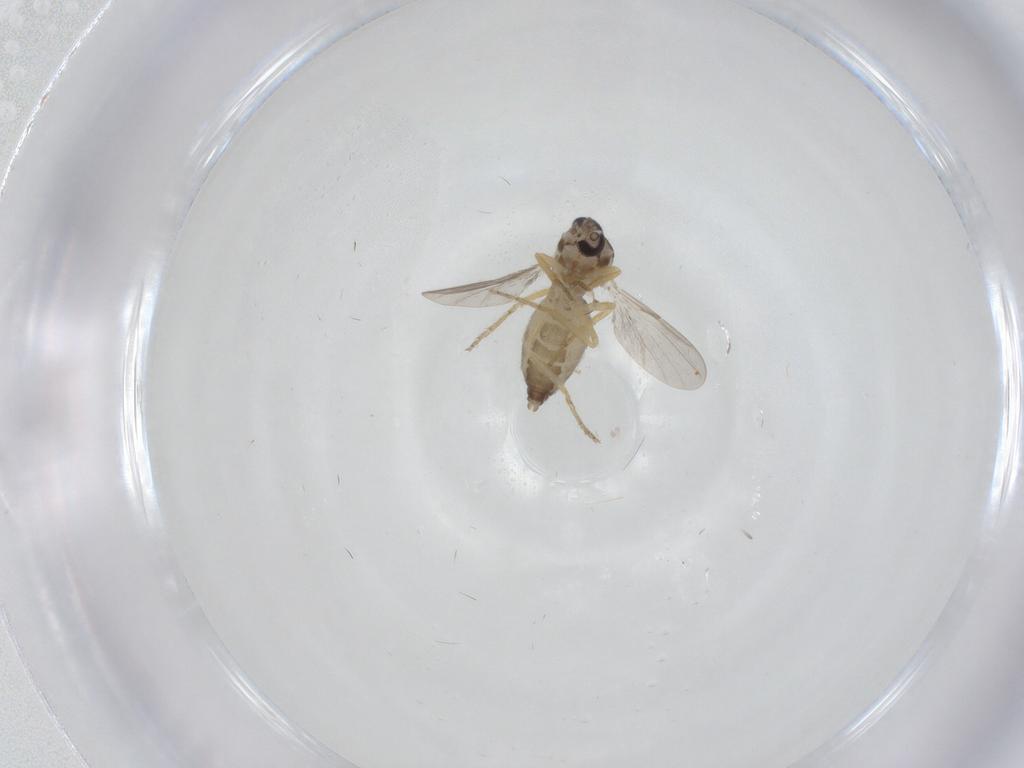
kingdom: Animalia
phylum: Arthropoda
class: Insecta
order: Diptera
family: Ceratopogonidae
